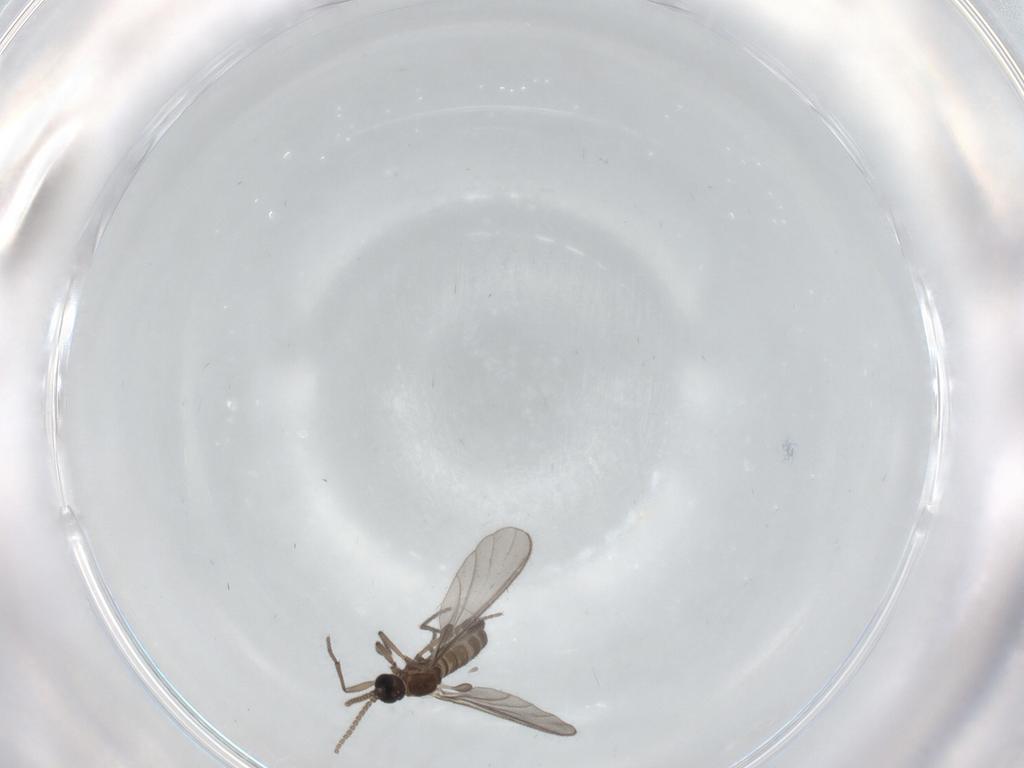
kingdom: Animalia
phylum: Arthropoda
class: Insecta
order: Diptera
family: Sciaridae
